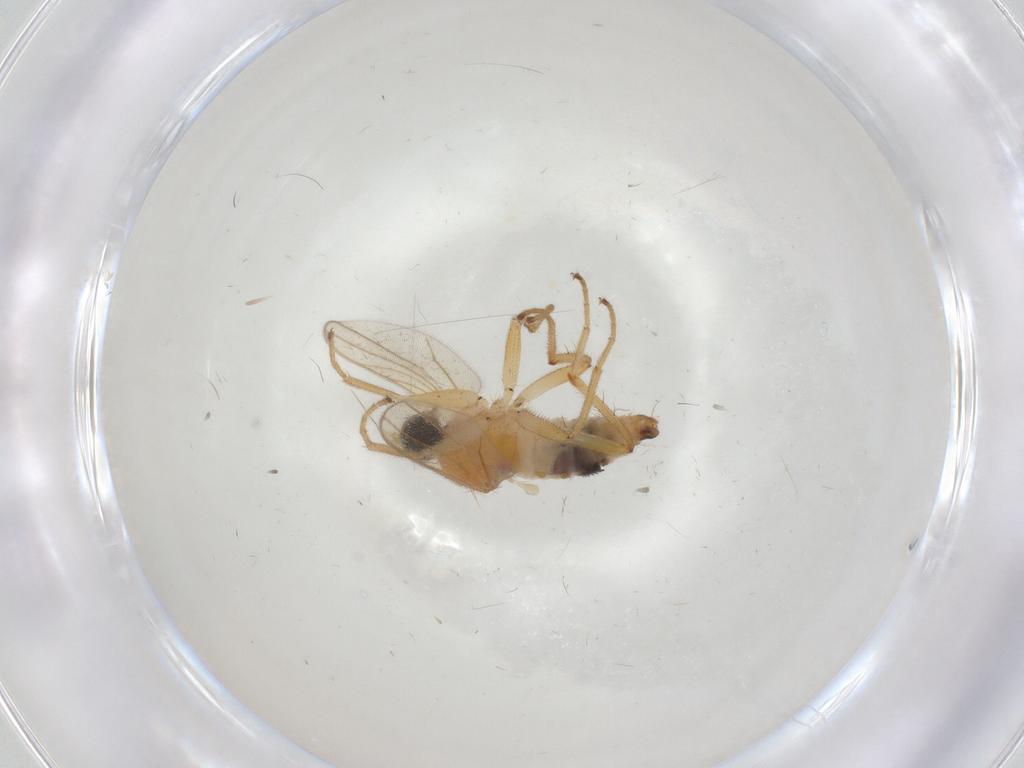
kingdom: Animalia
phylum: Arthropoda
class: Insecta
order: Diptera
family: Hybotidae
